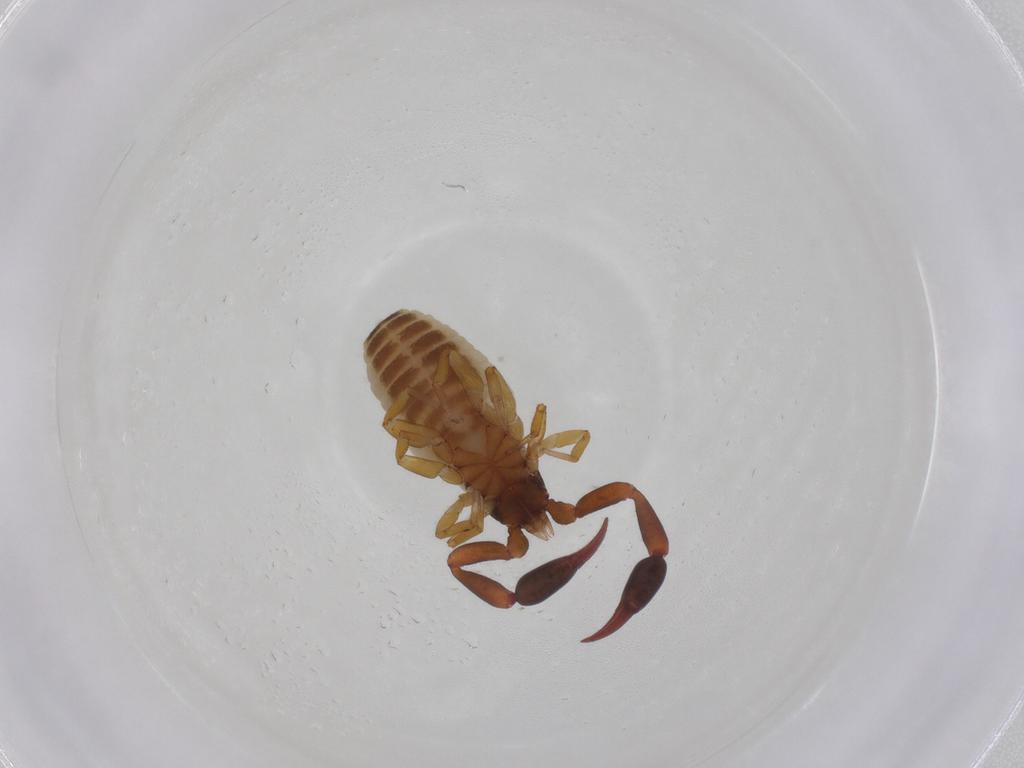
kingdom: Animalia
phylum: Arthropoda
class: Arachnida
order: Pseudoscorpiones
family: Withiidae
